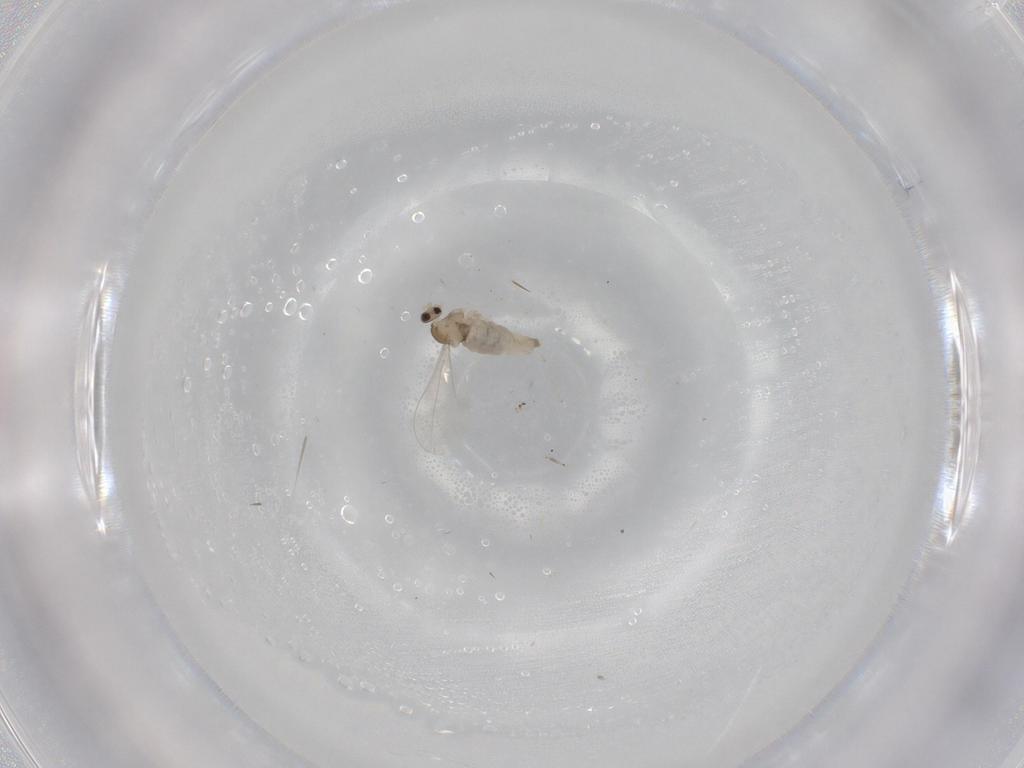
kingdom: Animalia
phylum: Arthropoda
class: Insecta
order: Diptera
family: Cecidomyiidae
